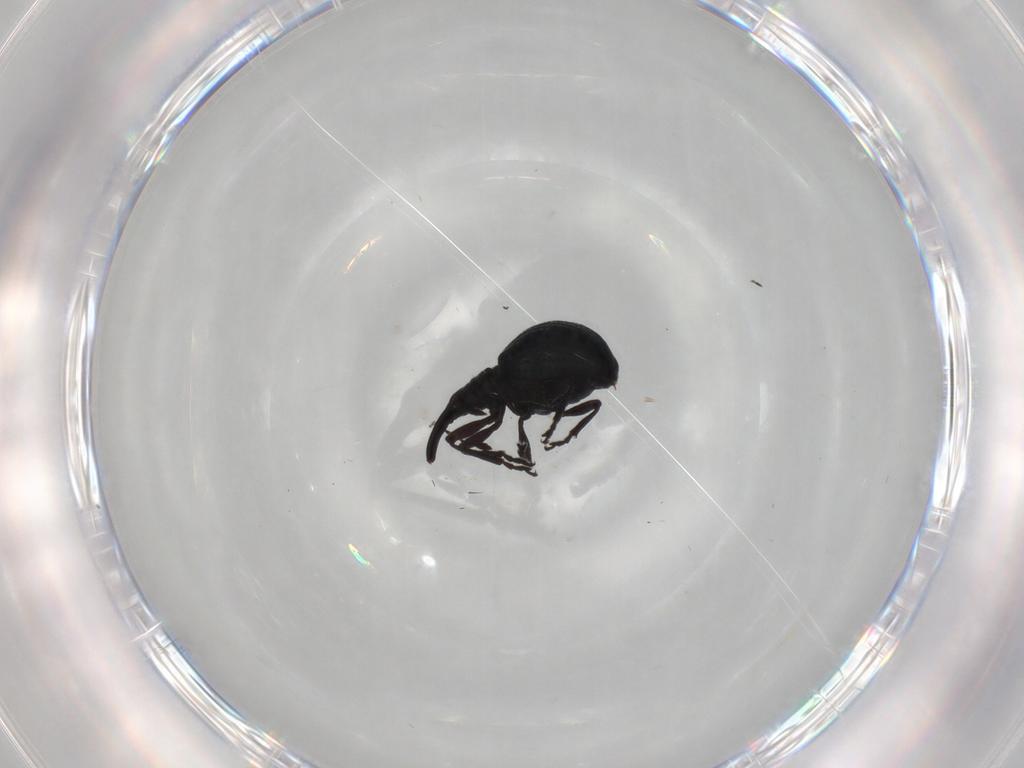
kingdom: Animalia
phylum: Arthropoda
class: Insecta
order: Coleoptera
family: Brentidae
